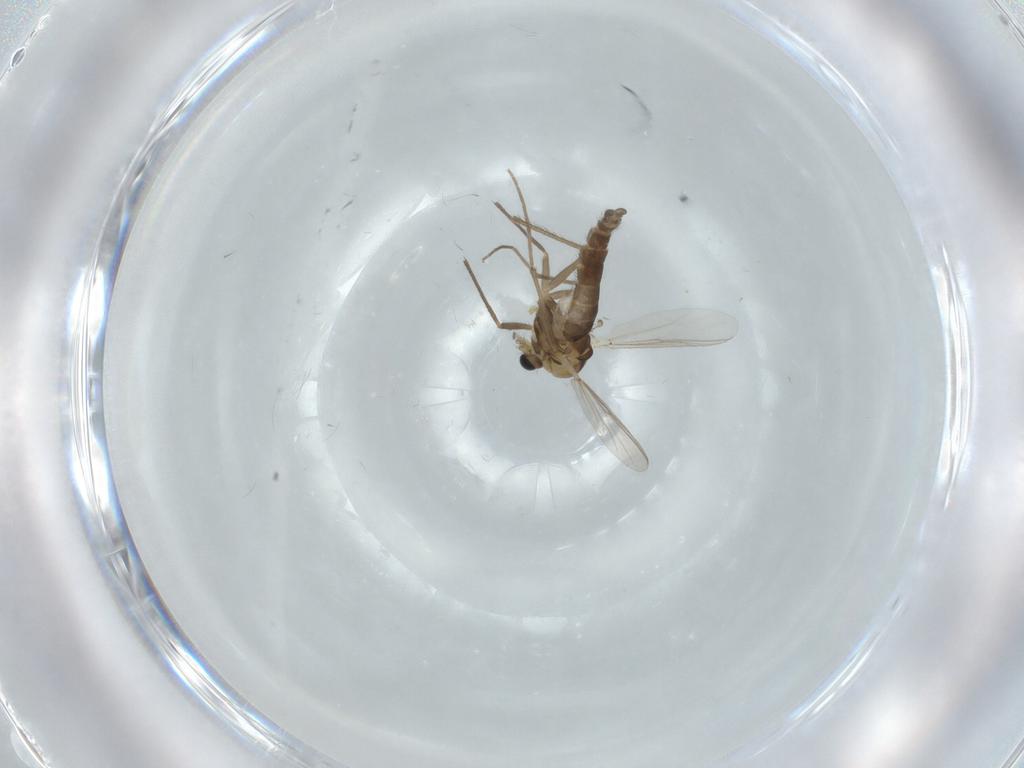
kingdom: Animalia
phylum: Arthropoda
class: Insecta
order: Diptera
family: Chironomidae
